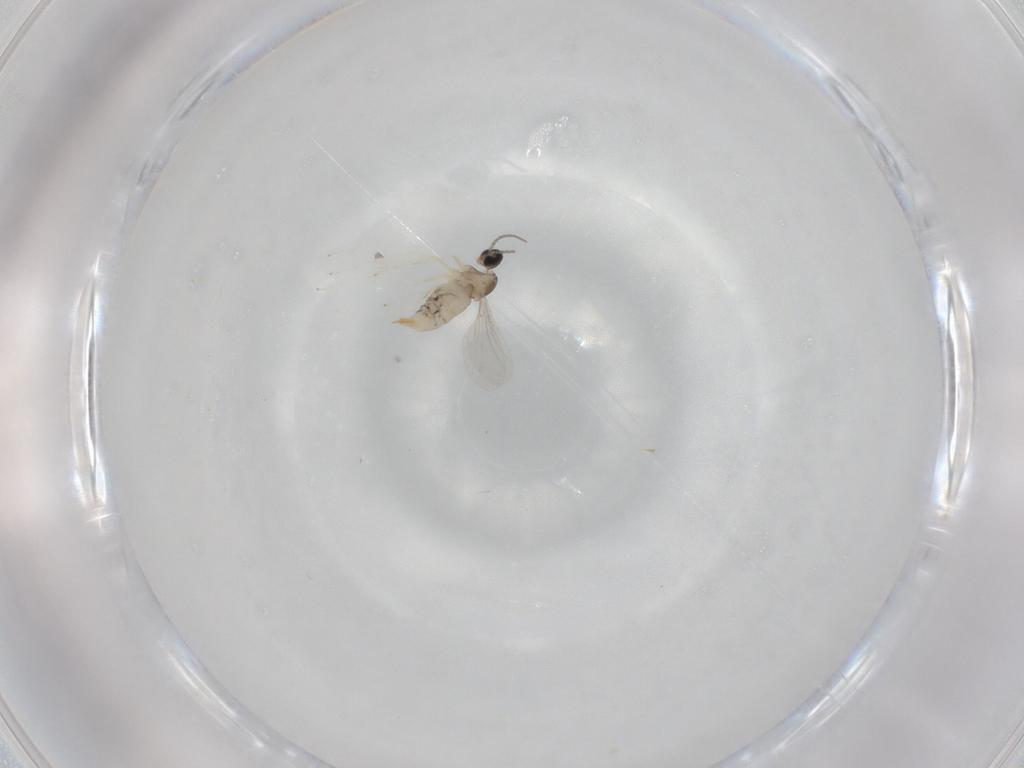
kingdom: Animalia
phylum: Arthropoda
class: Insecta
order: Diptera
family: Cecidomyiidae
